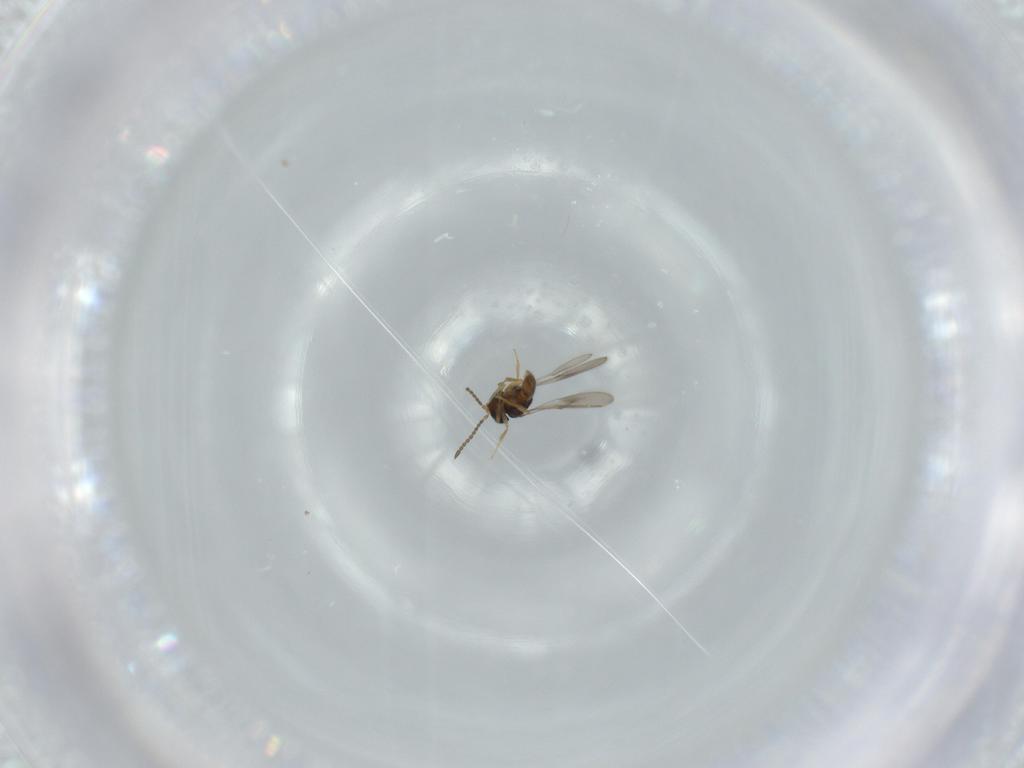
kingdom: Animalia
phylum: Arthropoda
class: Insecta
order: Hymenoptera
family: Scelionidae
